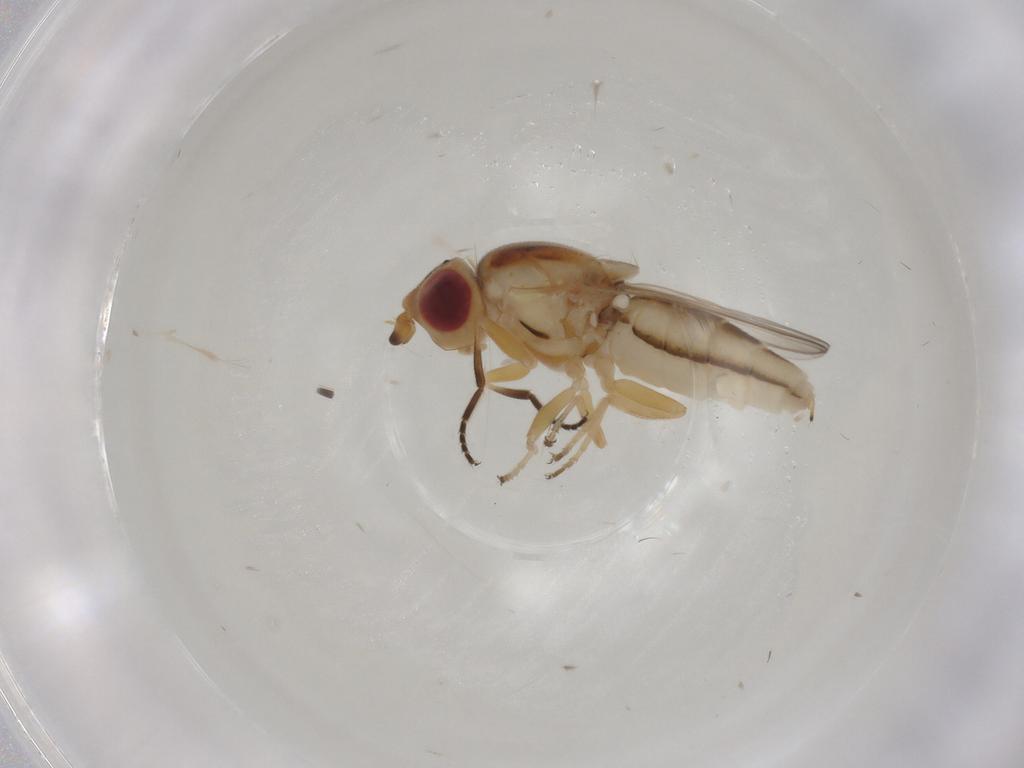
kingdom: Animalia
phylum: Arthropoda
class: Insecta
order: Diptera
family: Chloropidae
